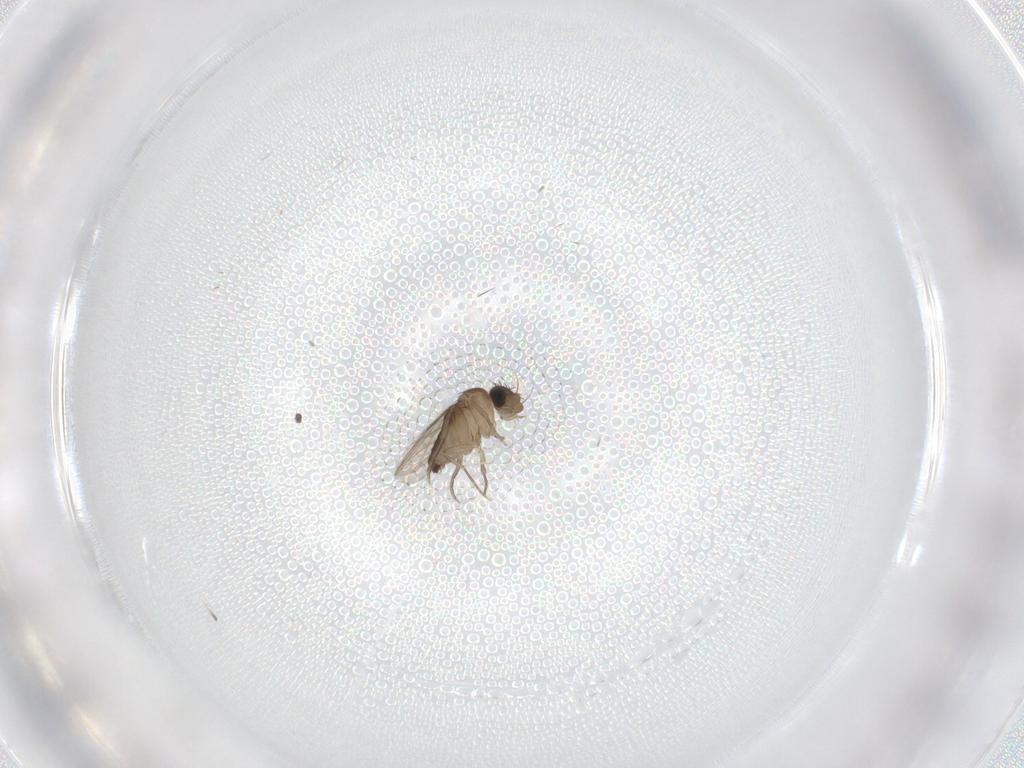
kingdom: Animalia
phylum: Arthropoda
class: Insecta
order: Diptera
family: Phoridae
